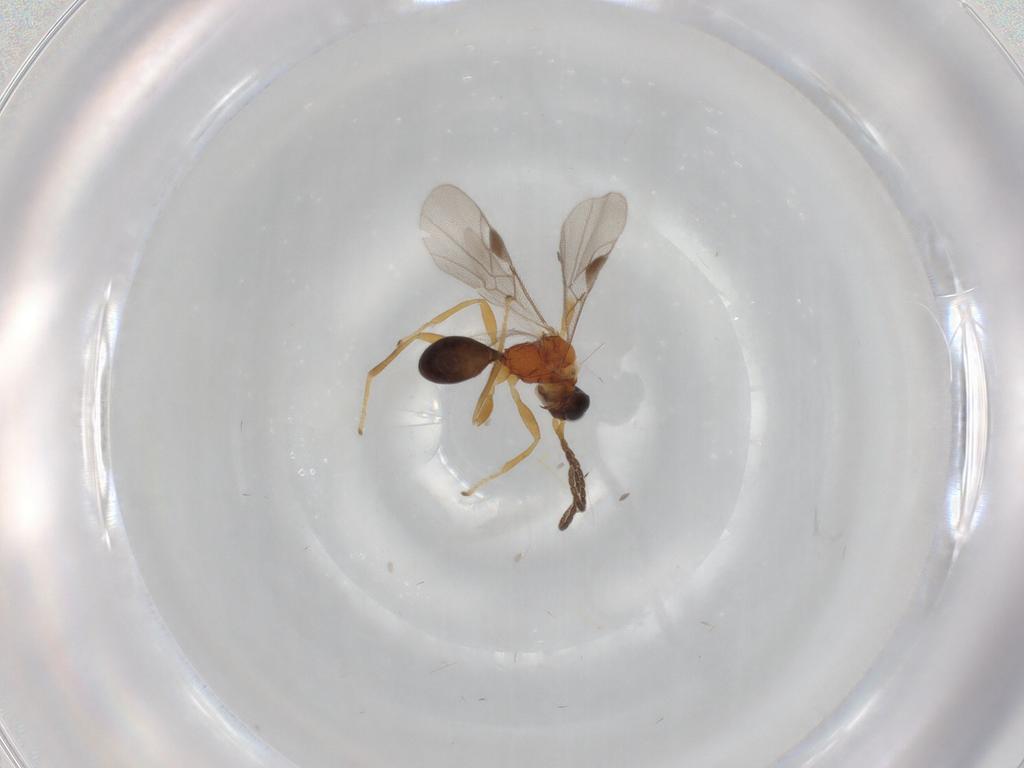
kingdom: Animalia
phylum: Arthropoda
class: Insecta
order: Hymenoptera
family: Braconidae
